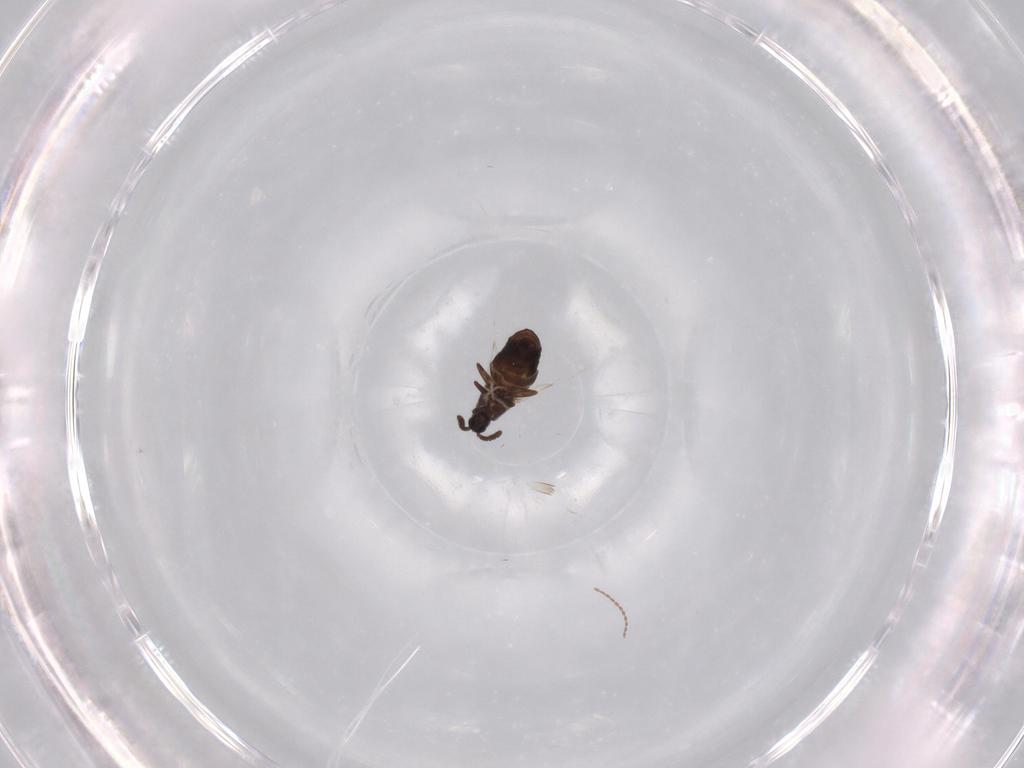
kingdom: Animalia
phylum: Arthropoda
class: Insecta
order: Diptera
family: Scatopsidae
